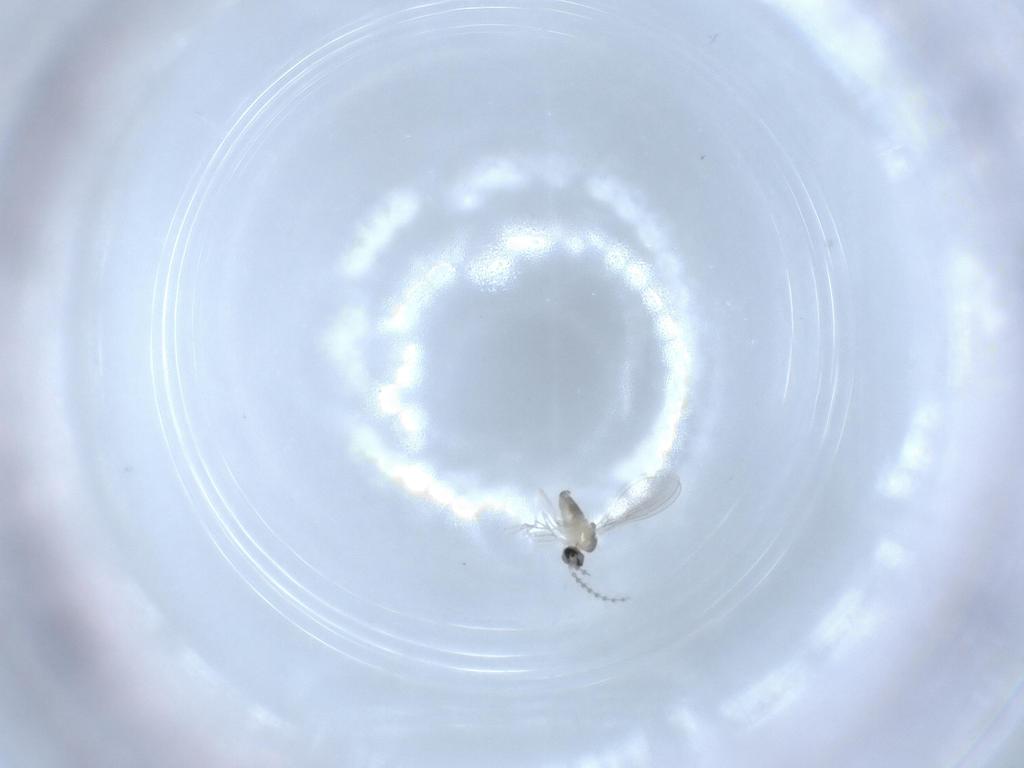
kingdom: Animalia
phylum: Arthropoda
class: Insecta
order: Diptera
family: Cecidomyiidae
